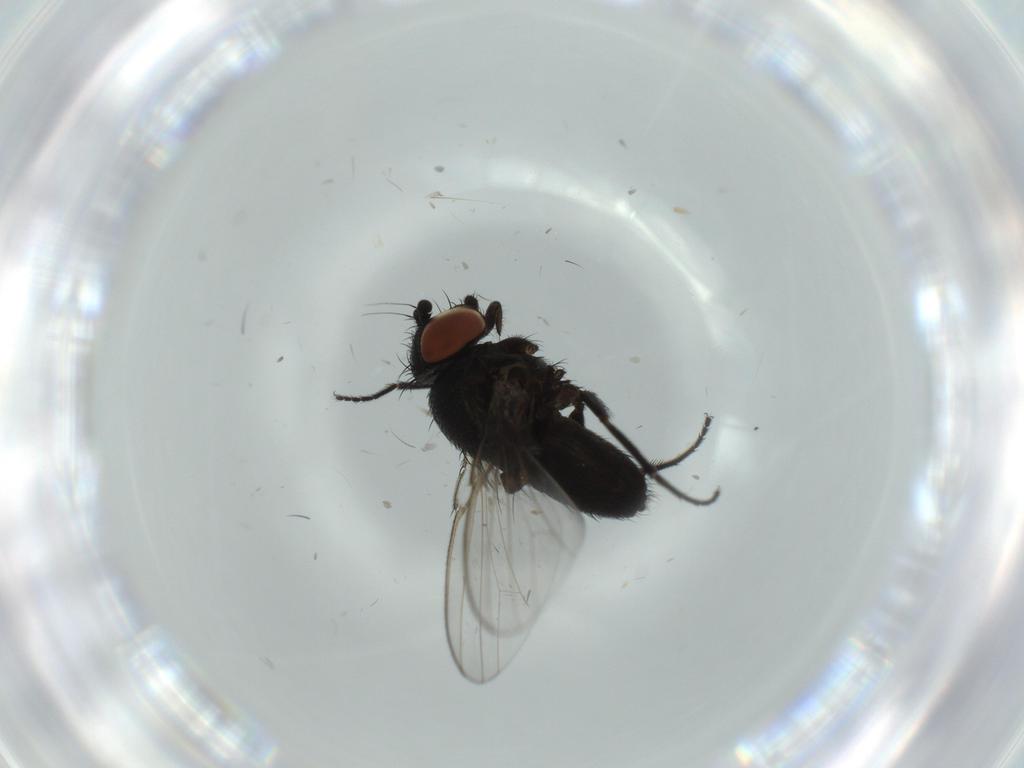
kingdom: Animalia
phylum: Arthropoda
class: Insecta
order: Diptera
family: Milichiidae
